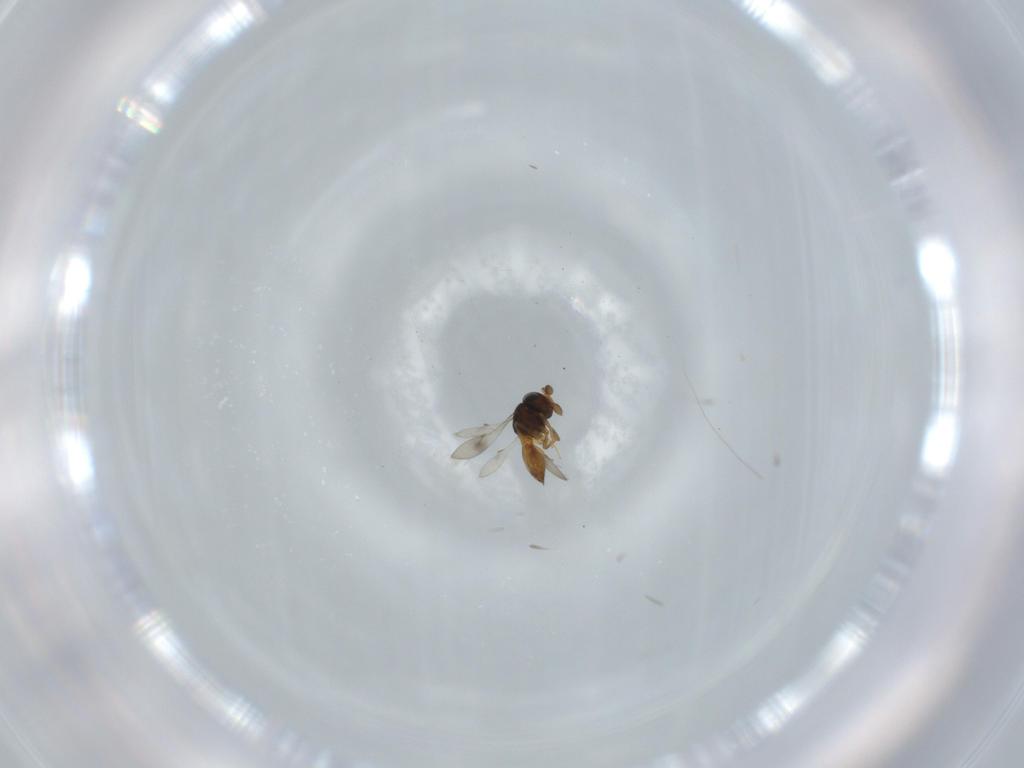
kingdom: Animalia
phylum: Arthropoda
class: Insecta
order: Hymenoptera
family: Scelionidae
